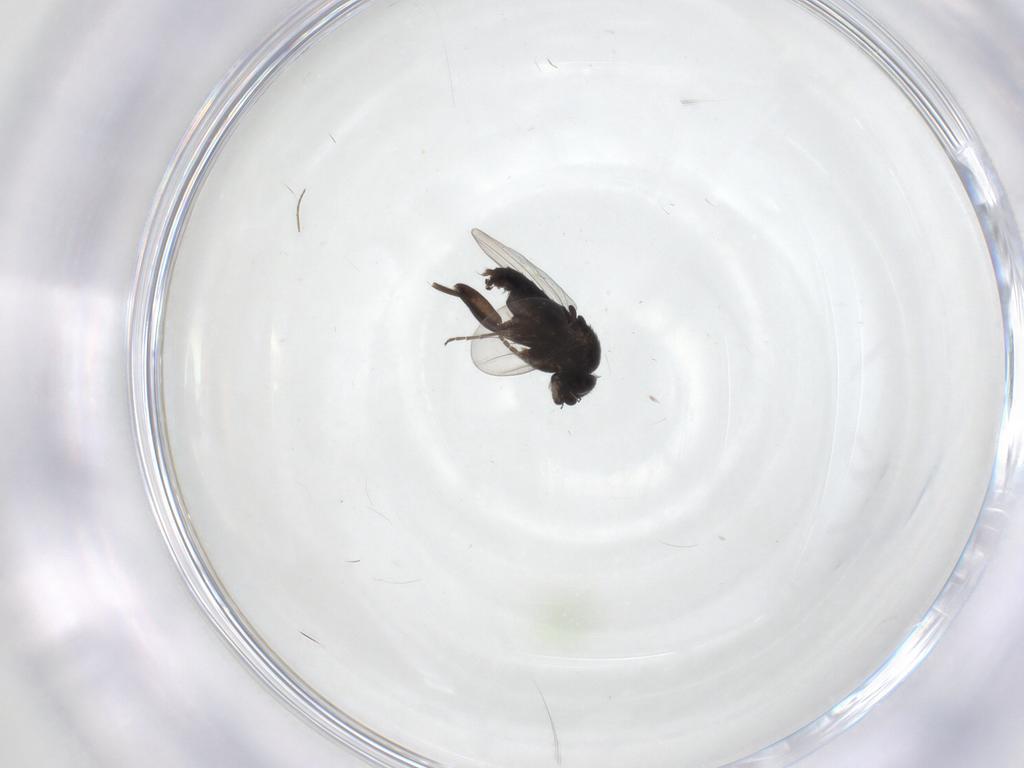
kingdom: Animalia
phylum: Arthropoda
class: Insecta
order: Diptera
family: Phoridae
